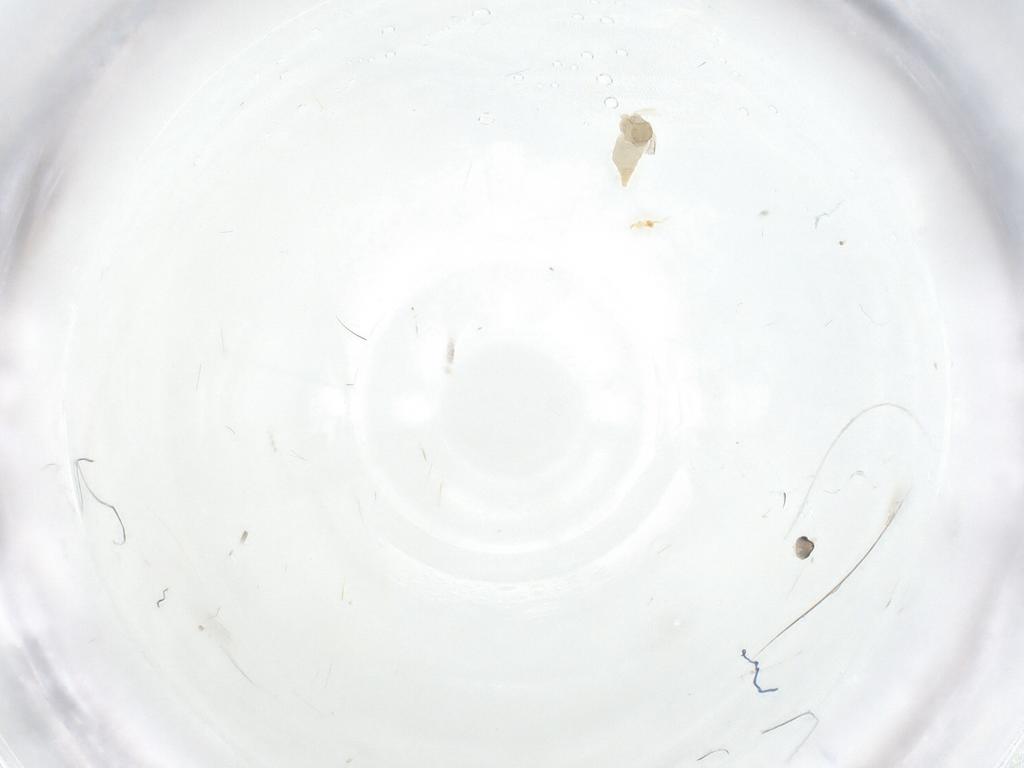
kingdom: Animalia
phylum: Arthropoda
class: Insecta
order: Diptera
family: Cecidomyiidae
